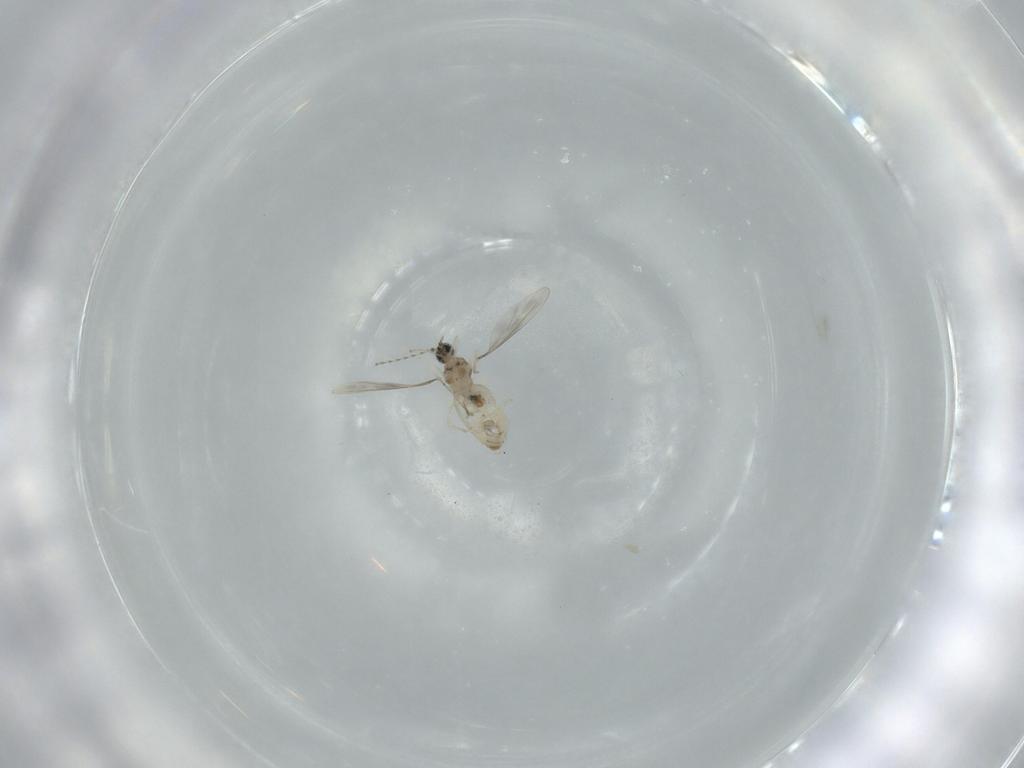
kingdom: Animalia
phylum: Arthropoda
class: Insecta
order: Diptera
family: Cecidomyiidae
